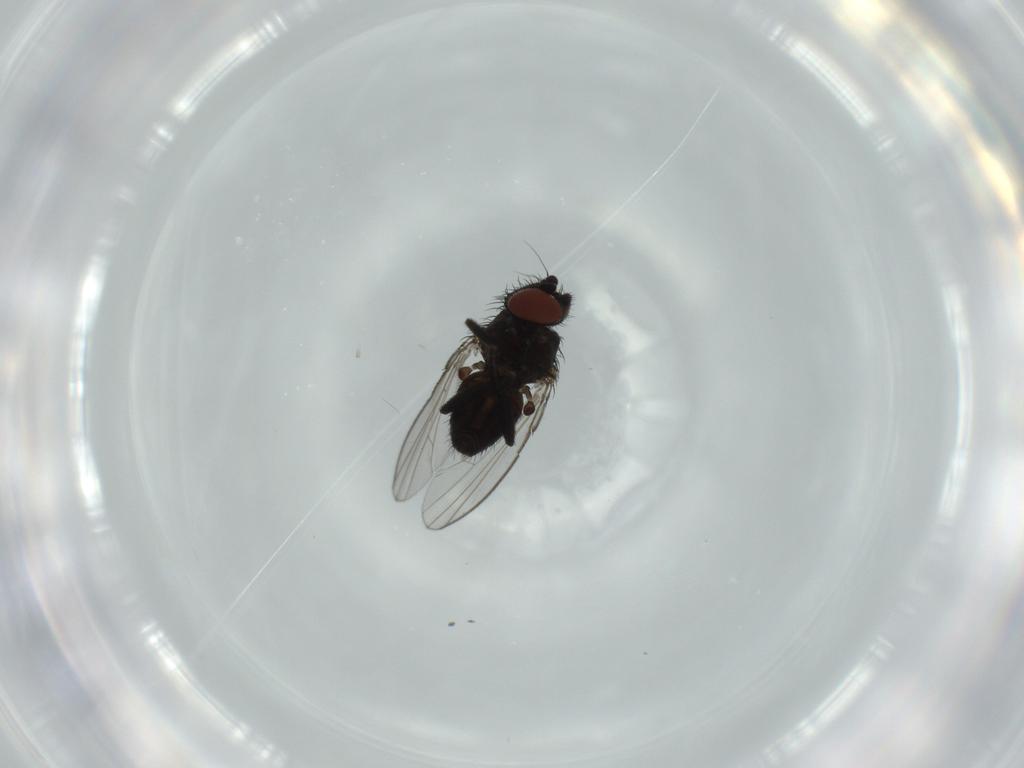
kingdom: Animalia
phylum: Arthropoda
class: Insecta
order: Diptera
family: Milichiidae
